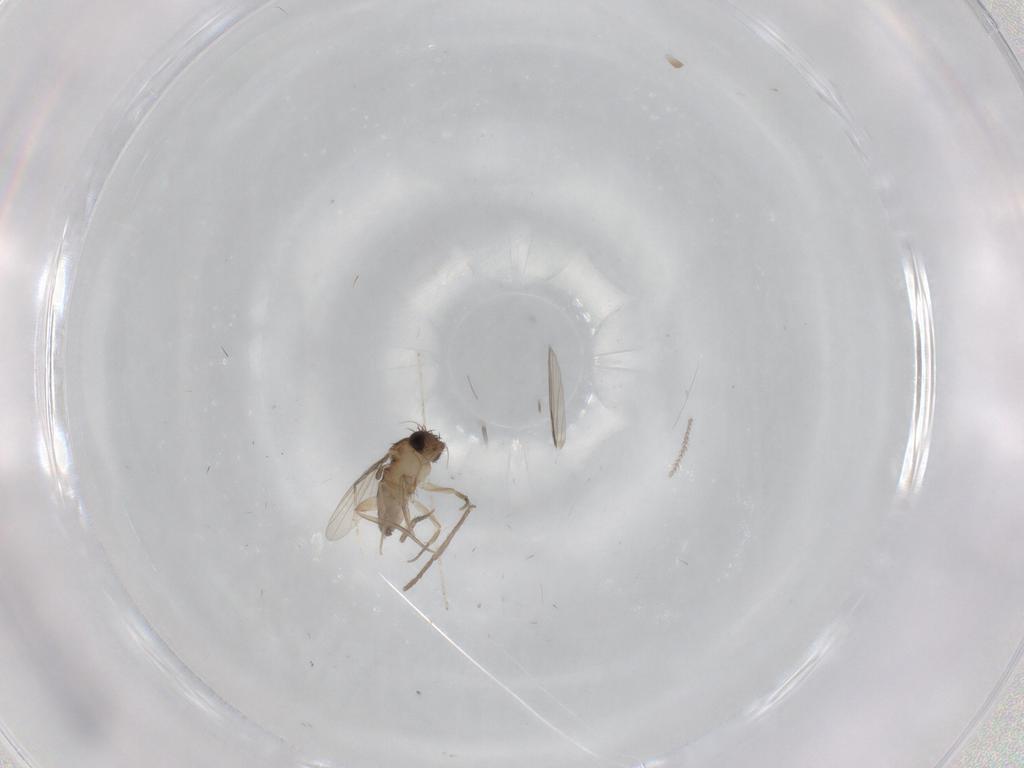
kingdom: Animalia
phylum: Arthropoda
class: Insecta
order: Diptera
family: Phoridae
